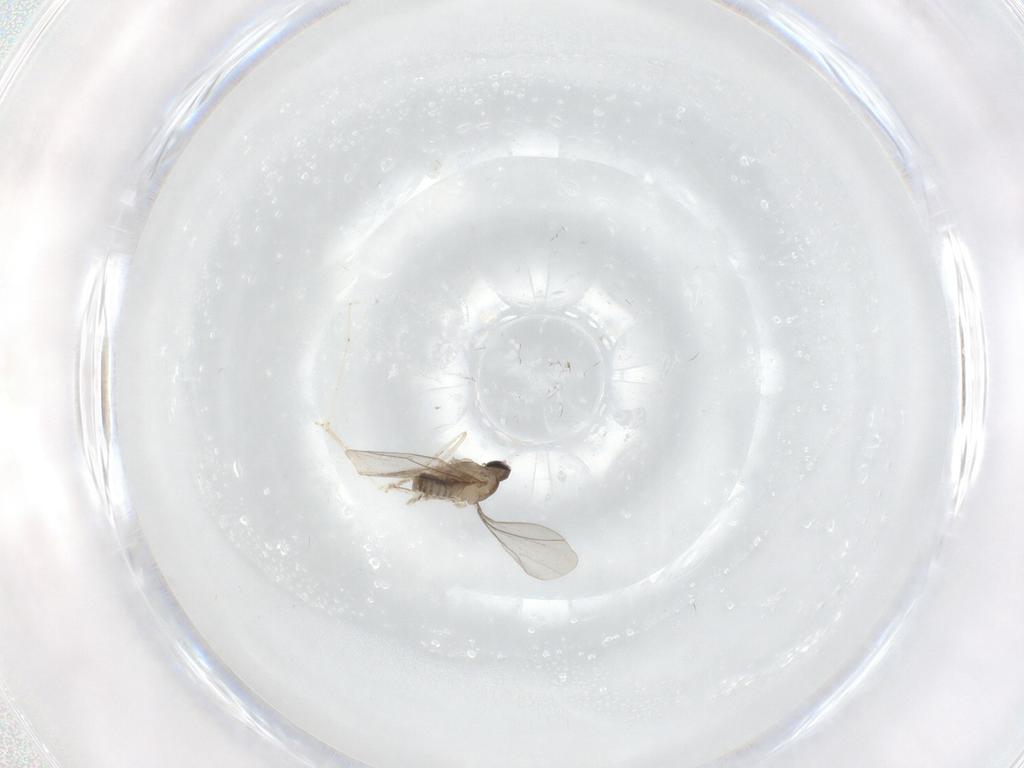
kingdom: Animalia
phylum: Arthropoda
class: Insecta
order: Diptera
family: Cecidomyiidae
